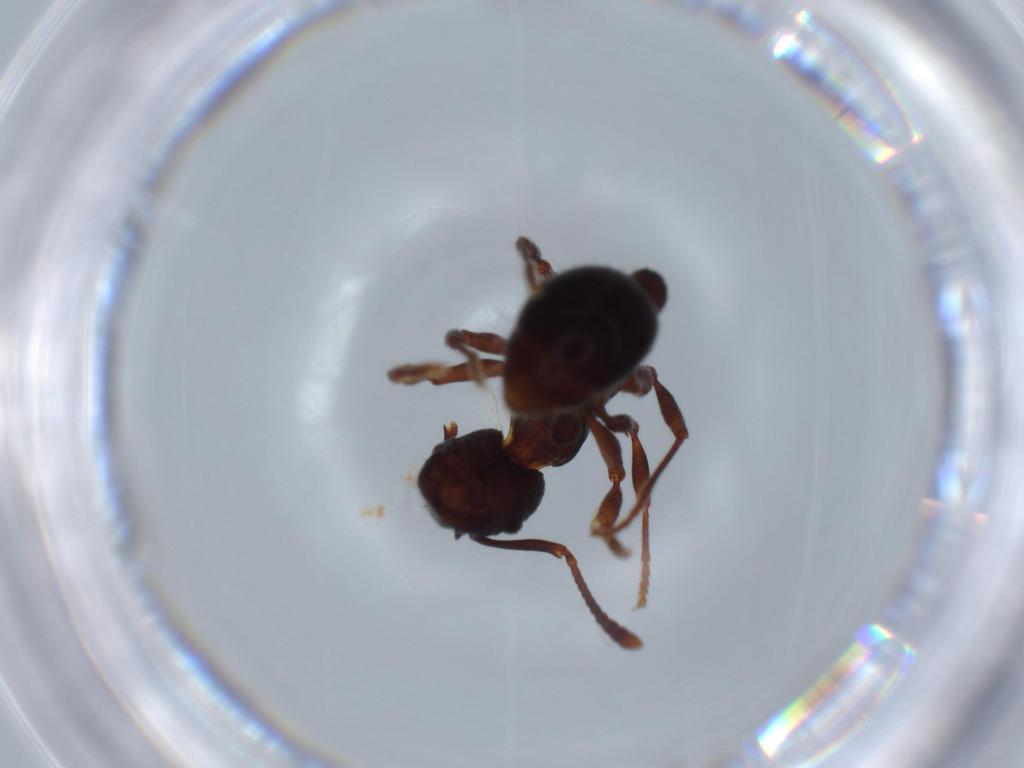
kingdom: Animalia
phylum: Arthropoda
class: Insecta
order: Hymenoptera
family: Formicidae
